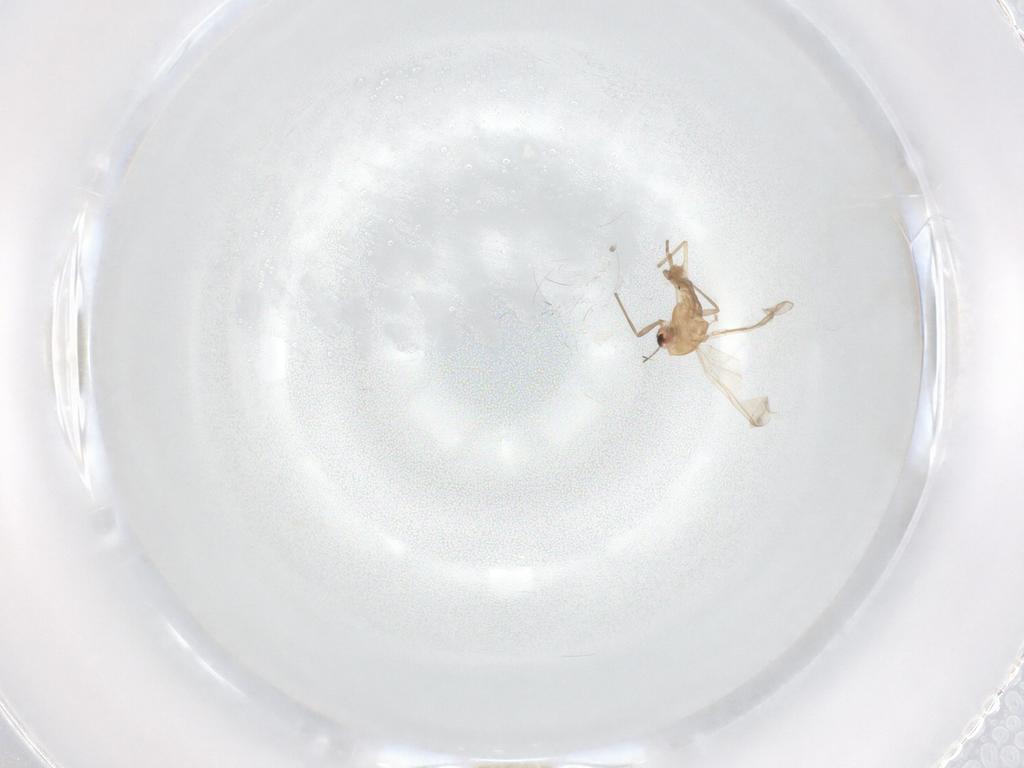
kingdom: Animalia
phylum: Arthropoda
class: Insecta
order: Diptera
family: Chironomidae
